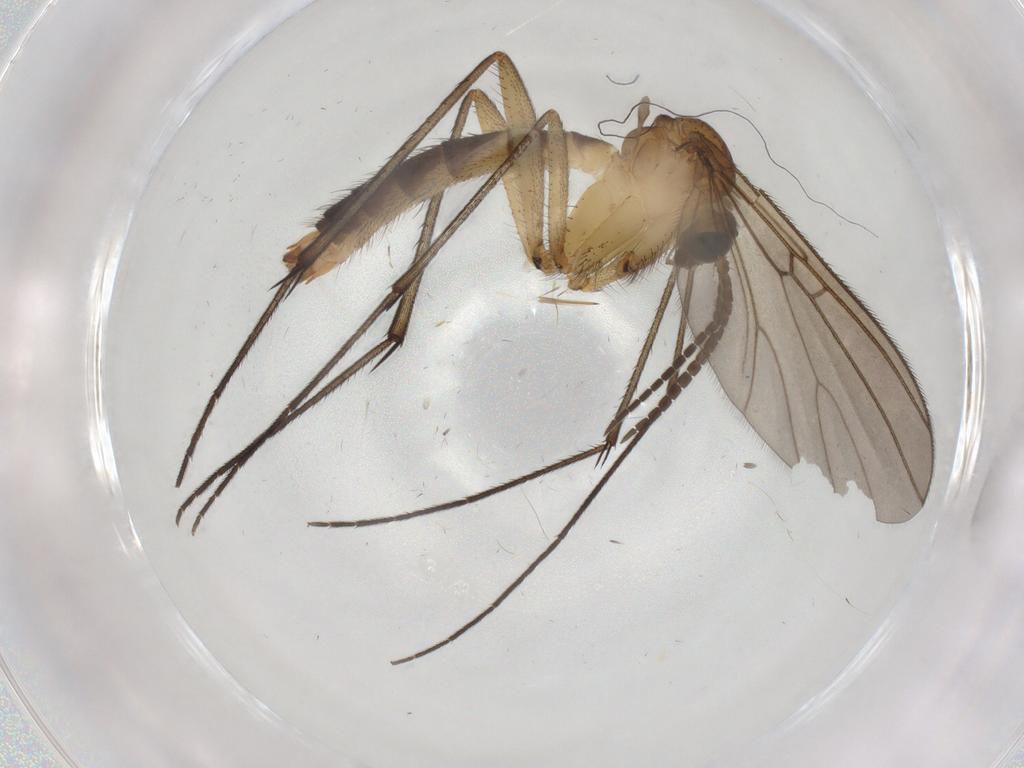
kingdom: Animalia
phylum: Arthropoda
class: Insecta
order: Diptera
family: Mycetophilidae
